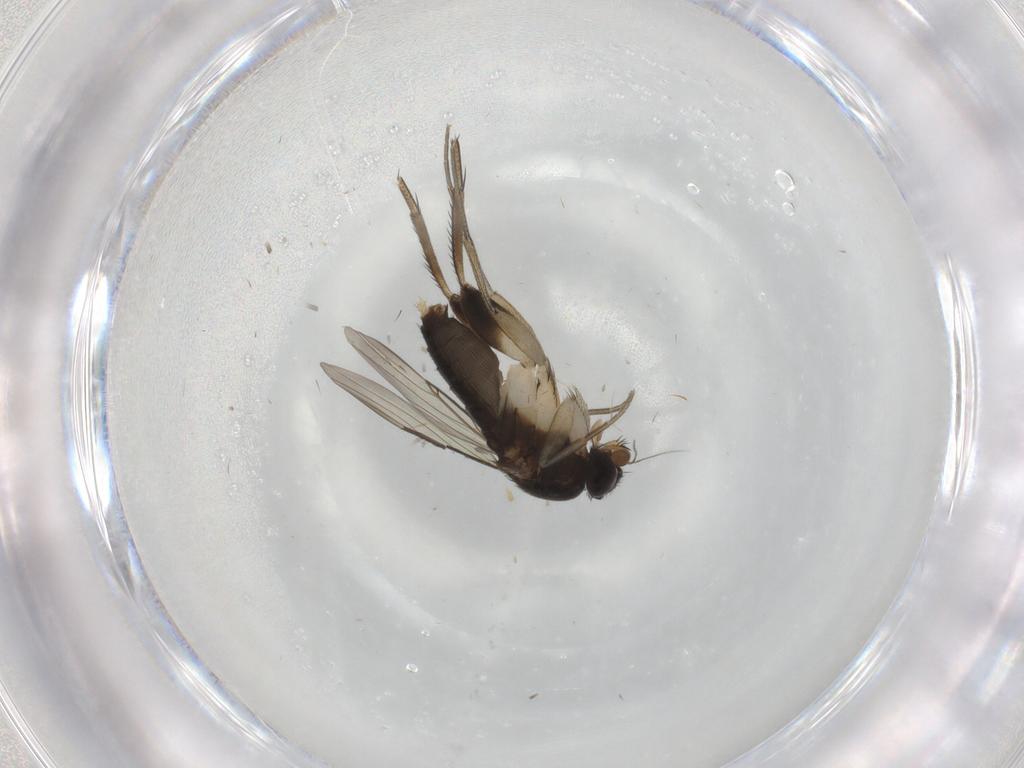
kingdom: Animalia
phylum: Arthropoda
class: Insecta
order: Diptera
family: Phoridae
